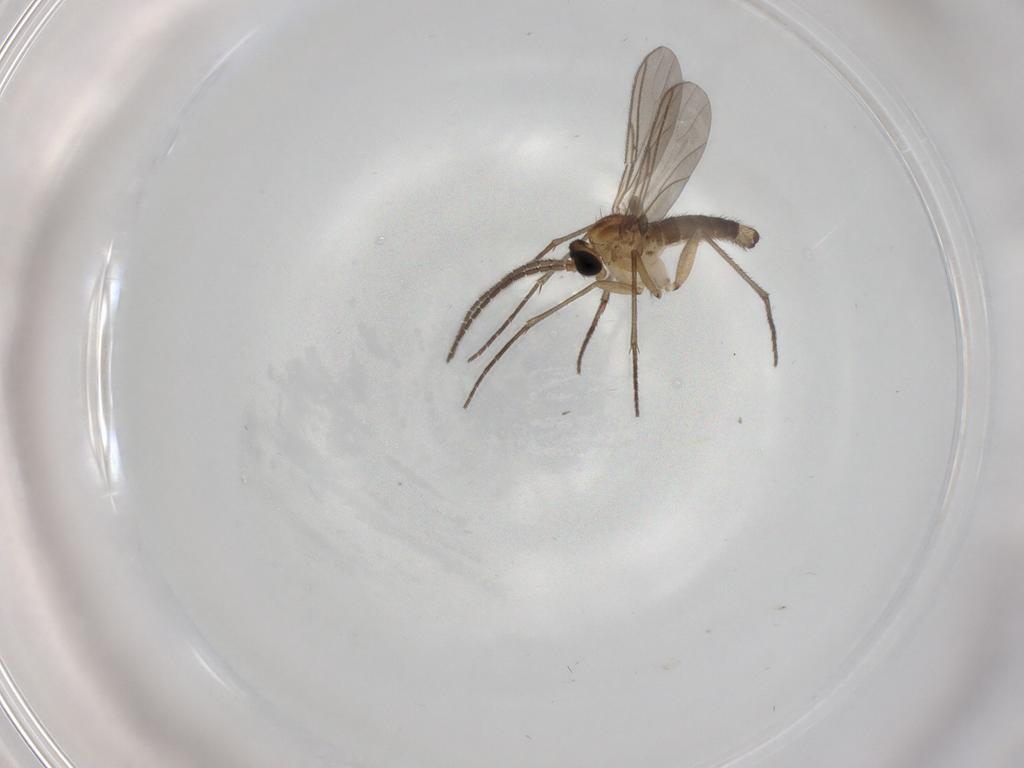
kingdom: Animalia
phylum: Arthropoda
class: Insecta
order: Diptera
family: Sciaridae
